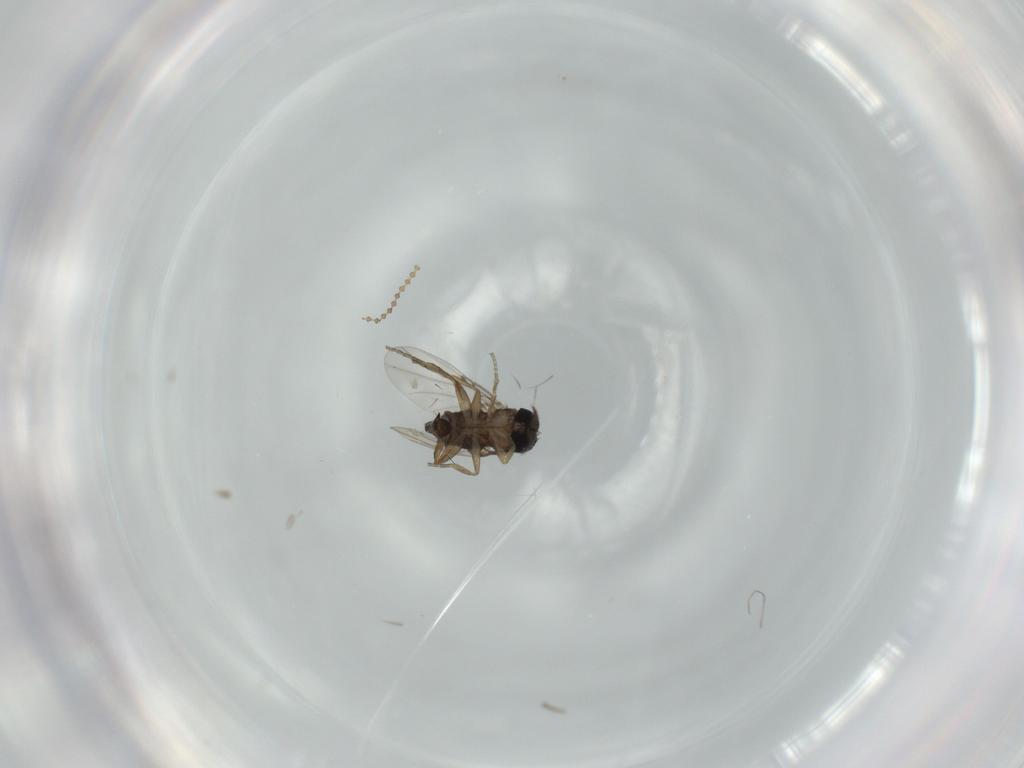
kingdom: Animalia
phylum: Arthropoda
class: Insecta
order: Diptera
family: Phoridae
